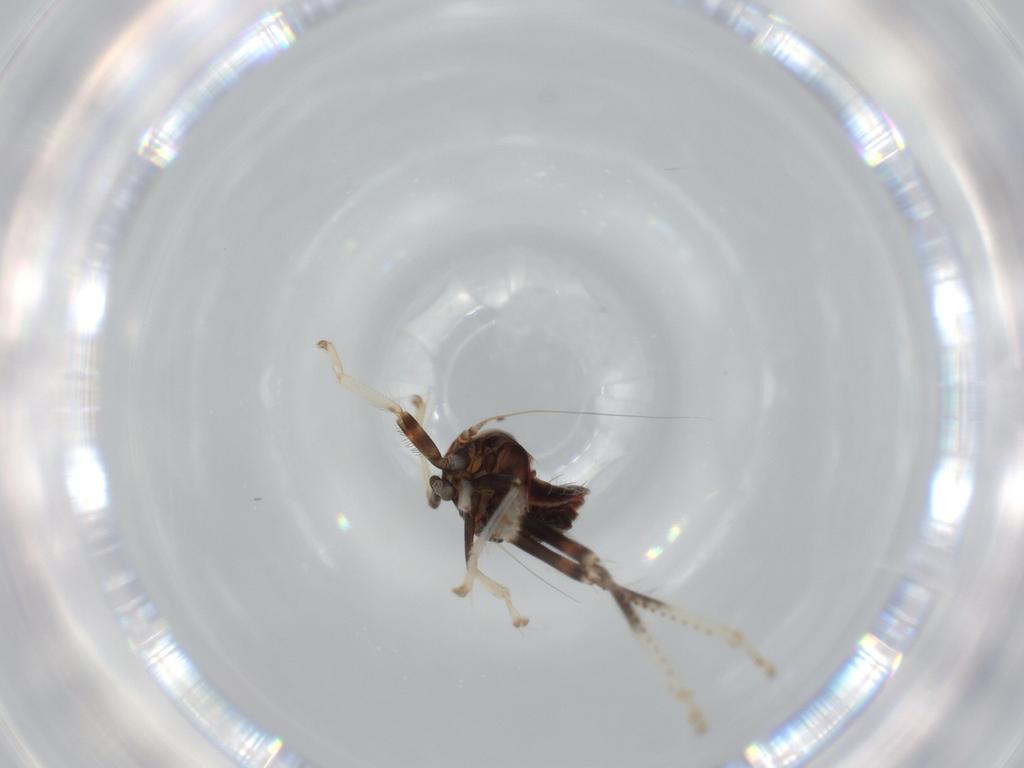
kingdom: Animalia
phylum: Arthropoda
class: Insecta
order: Hemiptera
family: Cicadellidae
